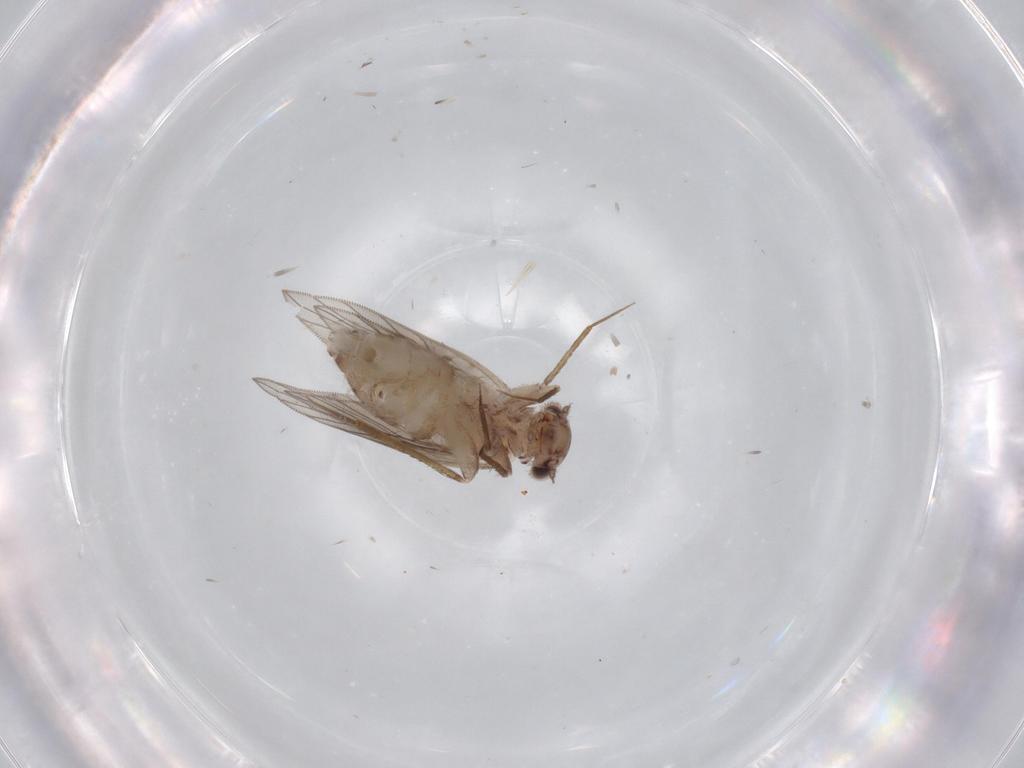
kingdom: Animalia
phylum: Arthropoda
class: Insecta
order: Psocodea
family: Lepidopsocidae
